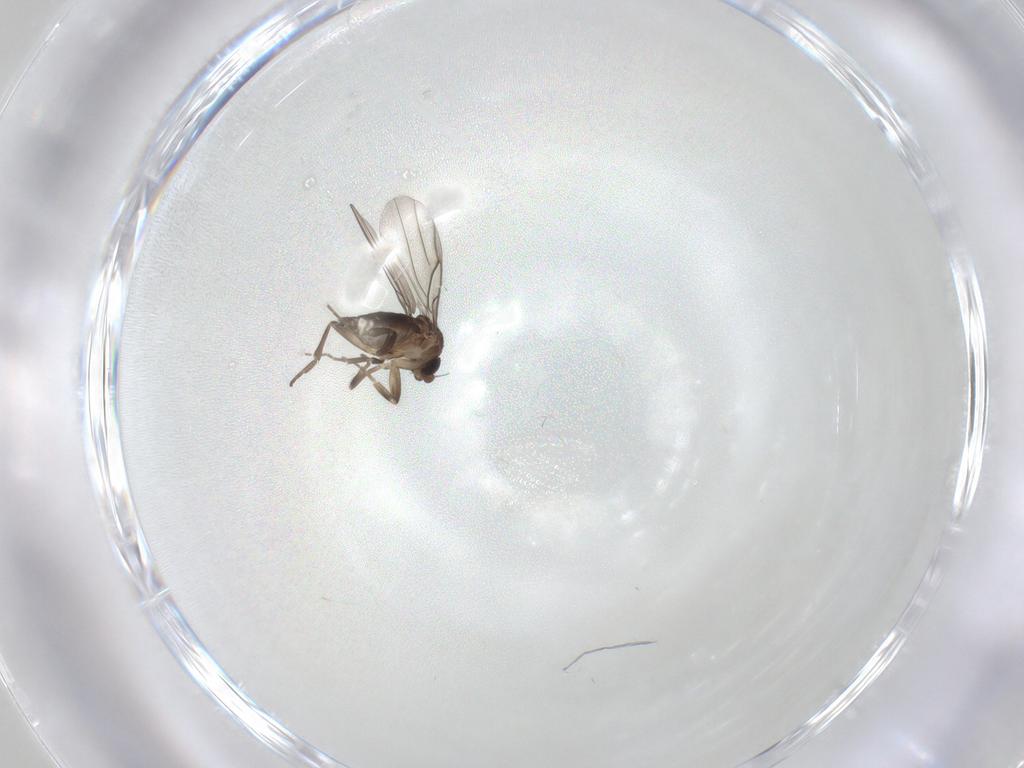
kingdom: Animalia
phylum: Arthropoda
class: Insecta
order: Diptera
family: Phoridae
